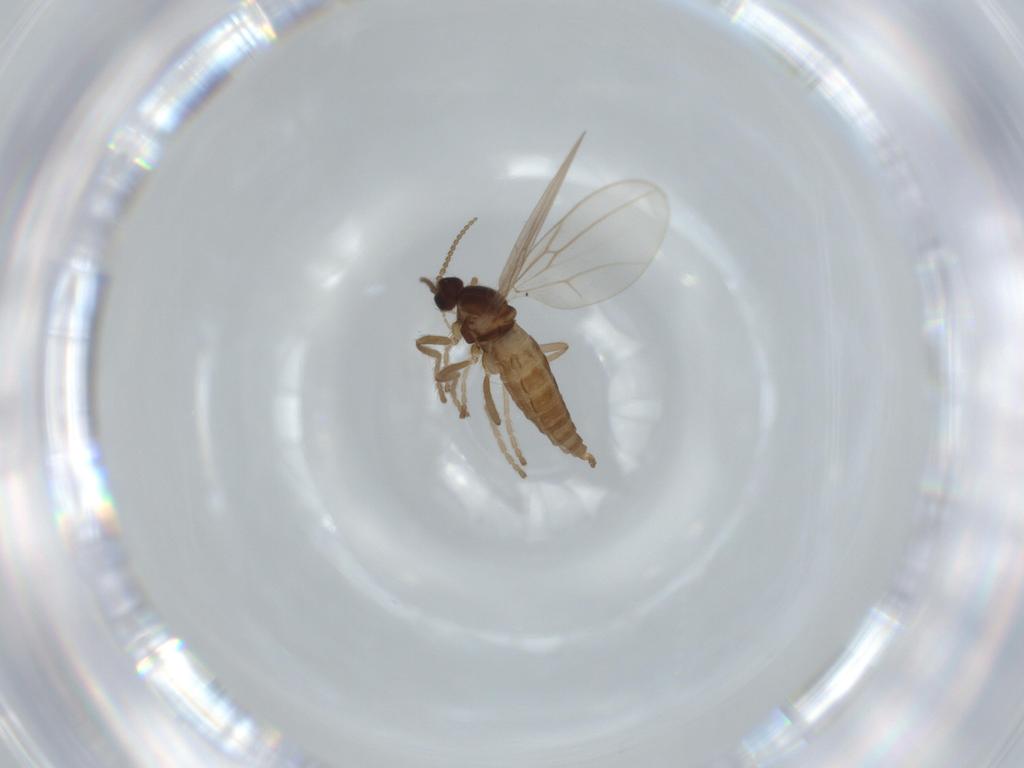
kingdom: Animalia
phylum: Arthropoda
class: Insecta
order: Diptera
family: Cecidomyiidae
